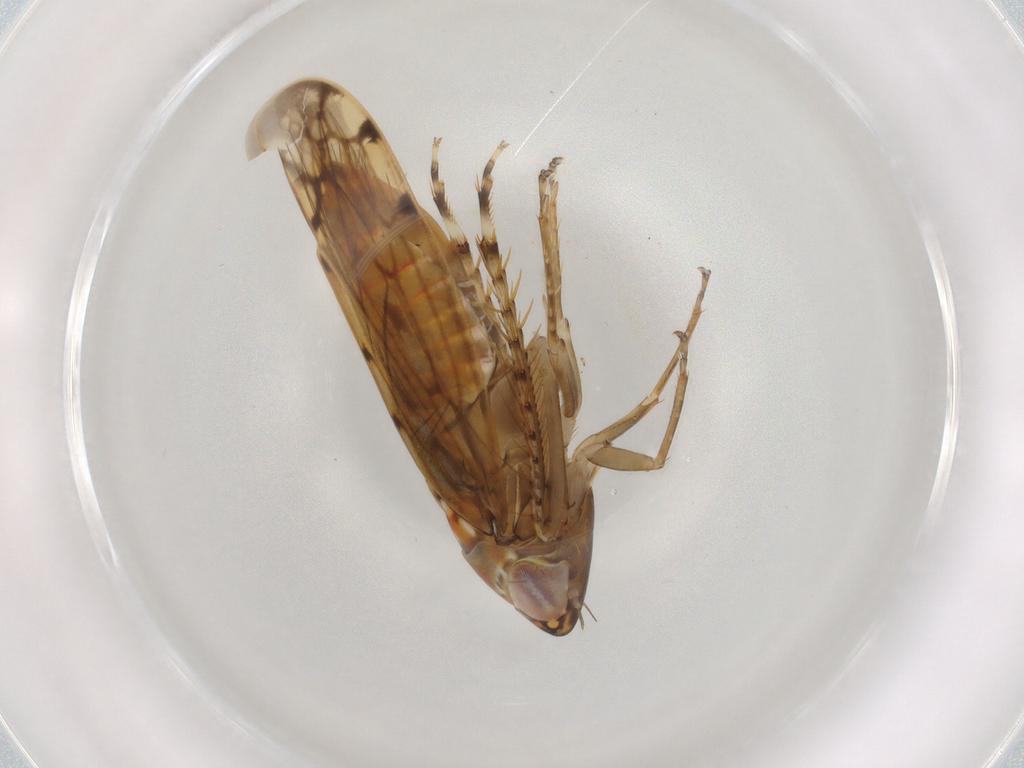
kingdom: Animalia
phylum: Arthropoda
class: Insecta
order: Hemiptera
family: Cicadellidae
